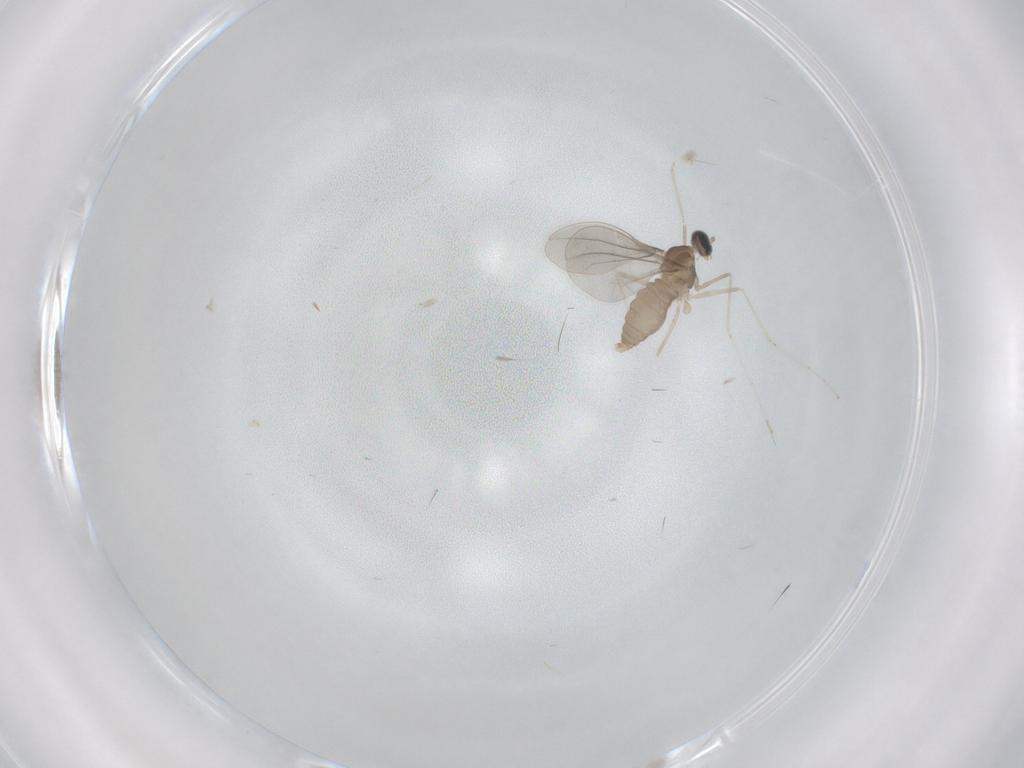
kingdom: Animalia
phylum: Arthropoda
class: Insecta
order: Diptera
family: Cecidomyiidae
